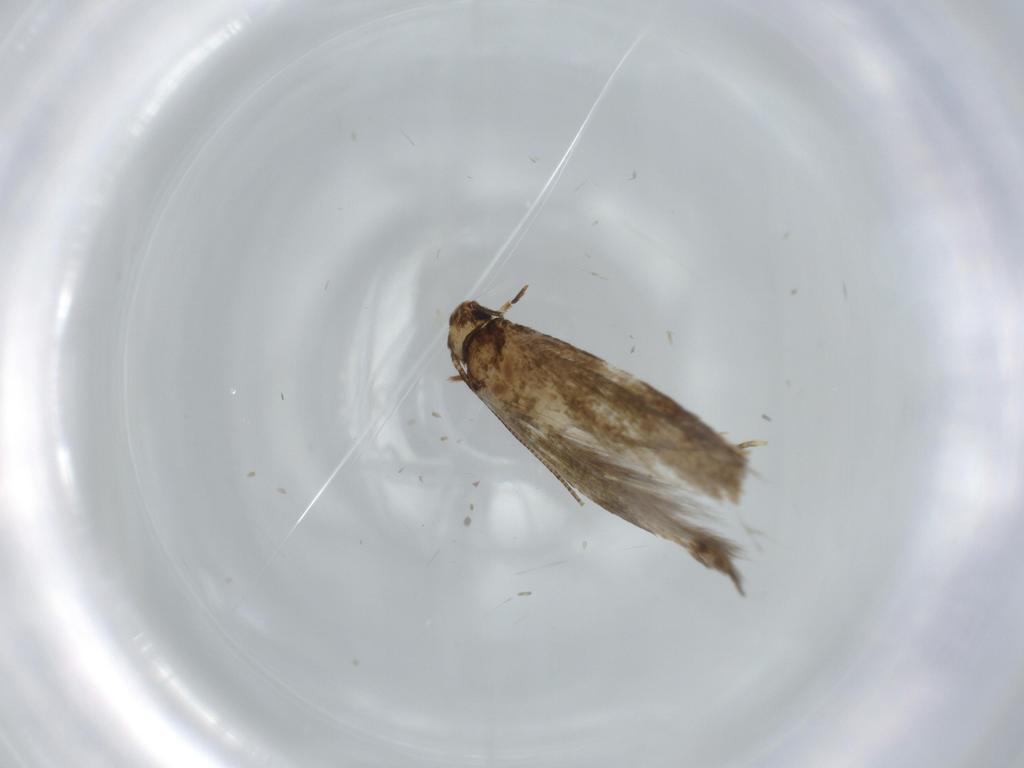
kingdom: Animalia
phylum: Arthropoda
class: Insecta
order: Lepidoptera
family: Tineidae
